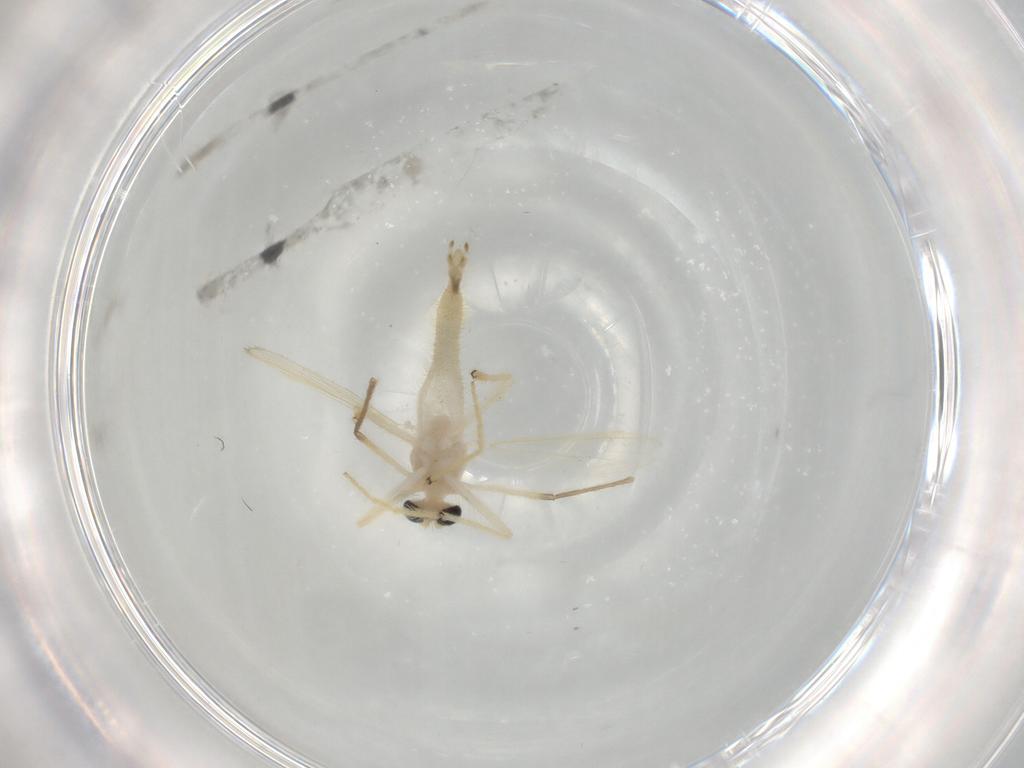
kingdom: Animalia
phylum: Arthropoda
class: Insecta
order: Diptera
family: Chironomidae
